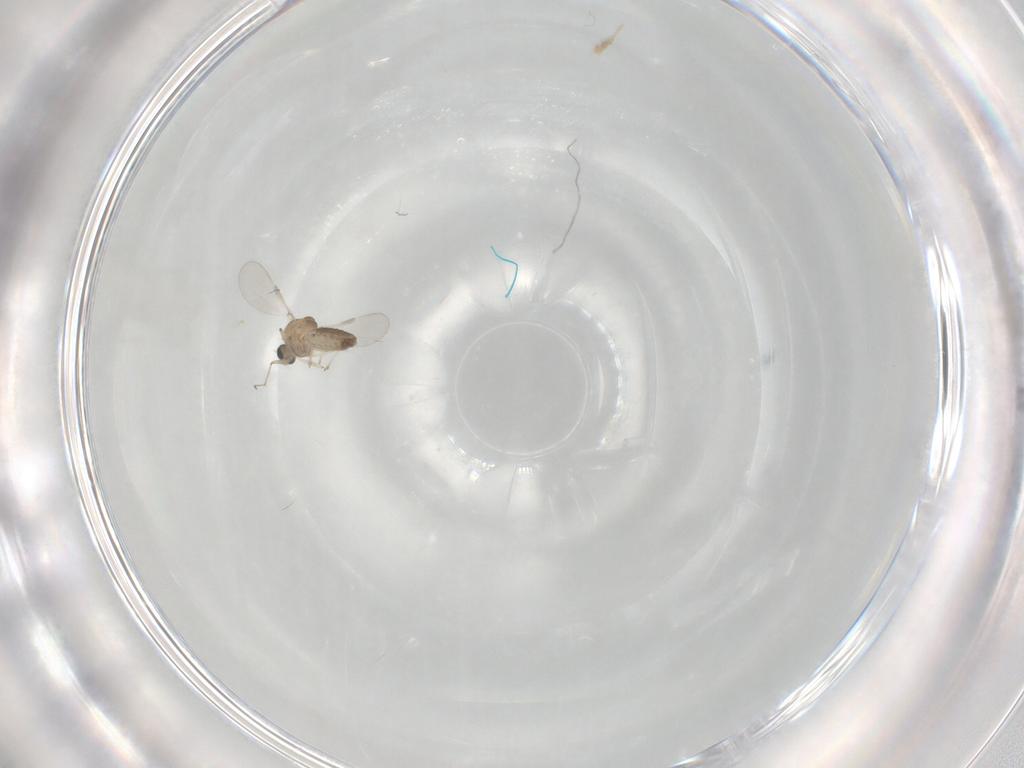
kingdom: Animalia
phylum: Arthropoda
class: Insecta
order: Diptera
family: Chironomidae
